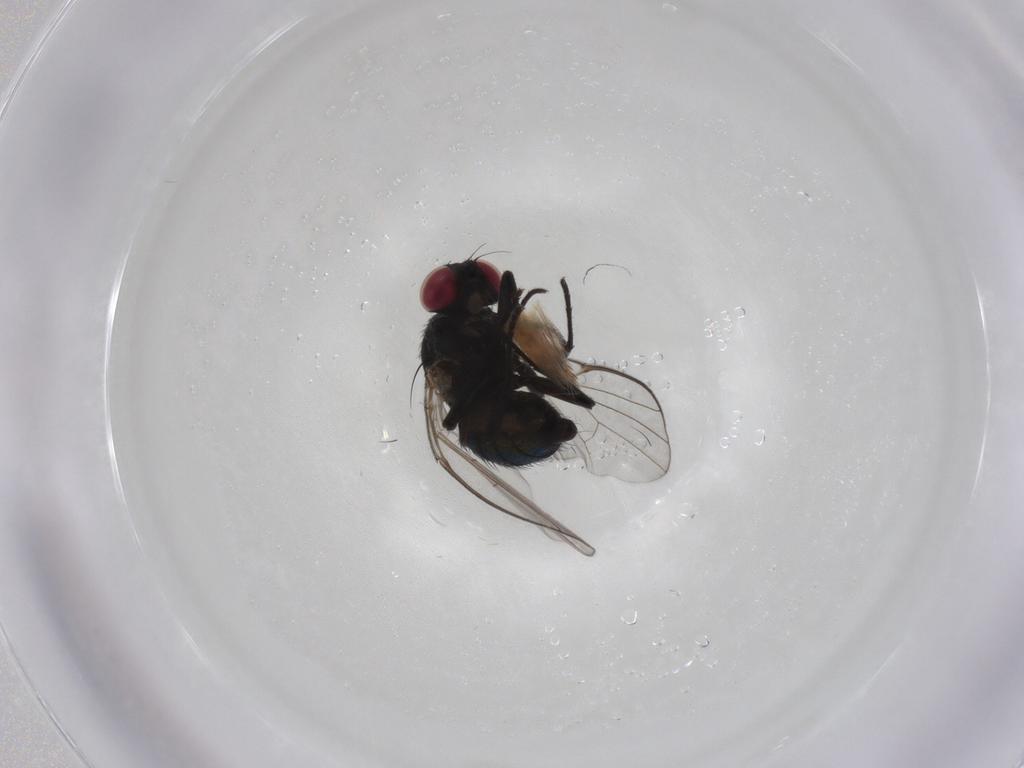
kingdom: Animalia
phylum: Arthropoda
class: Insecta
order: Diptera
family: Agromyzidae
